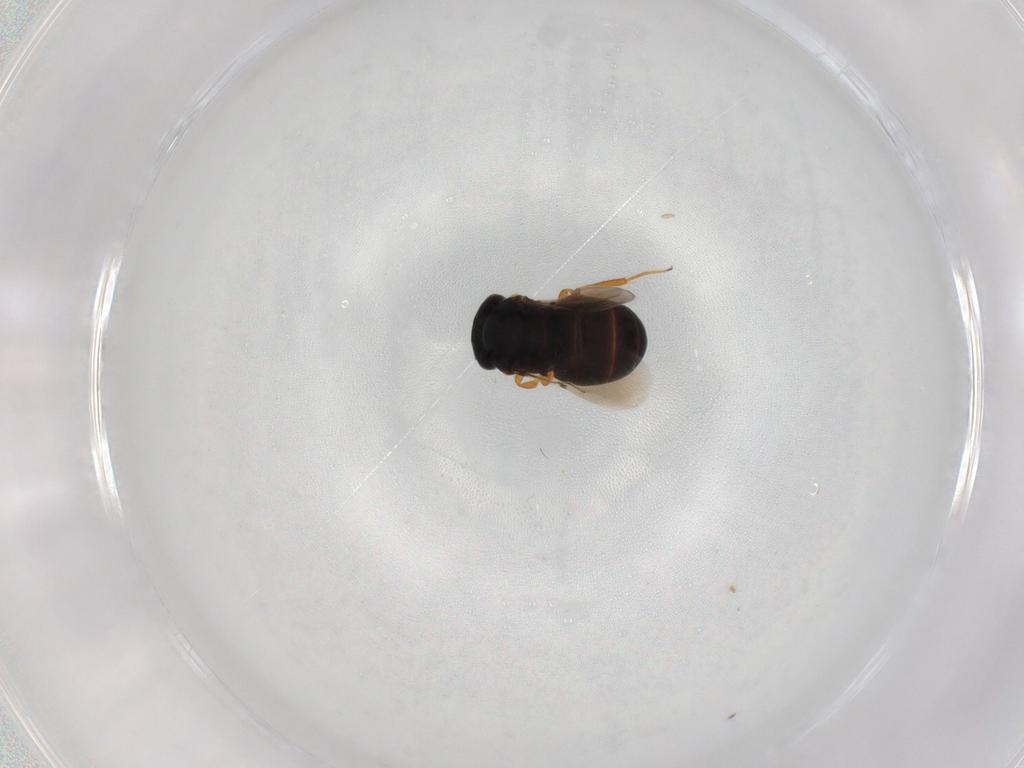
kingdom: Animalia
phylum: Arthropoda
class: Insecta
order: Hymenoptera
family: Scelionidae
